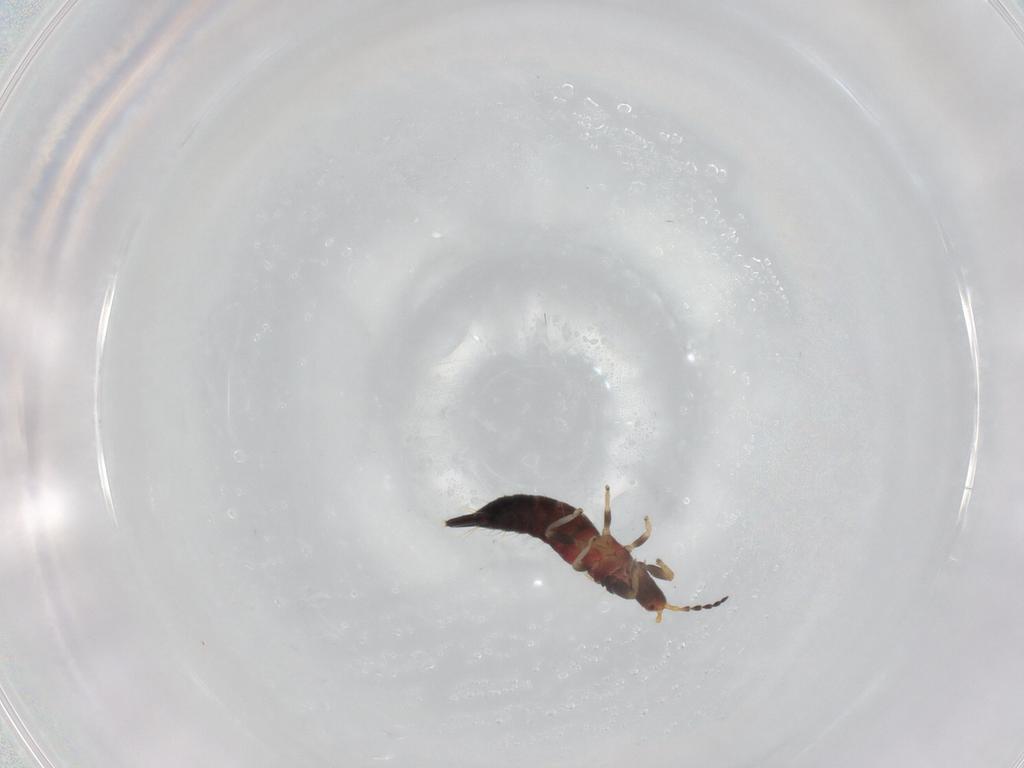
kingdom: Animalia
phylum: Arthropoda
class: Insecta
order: Thysanoptera
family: Phlaeothripidae
